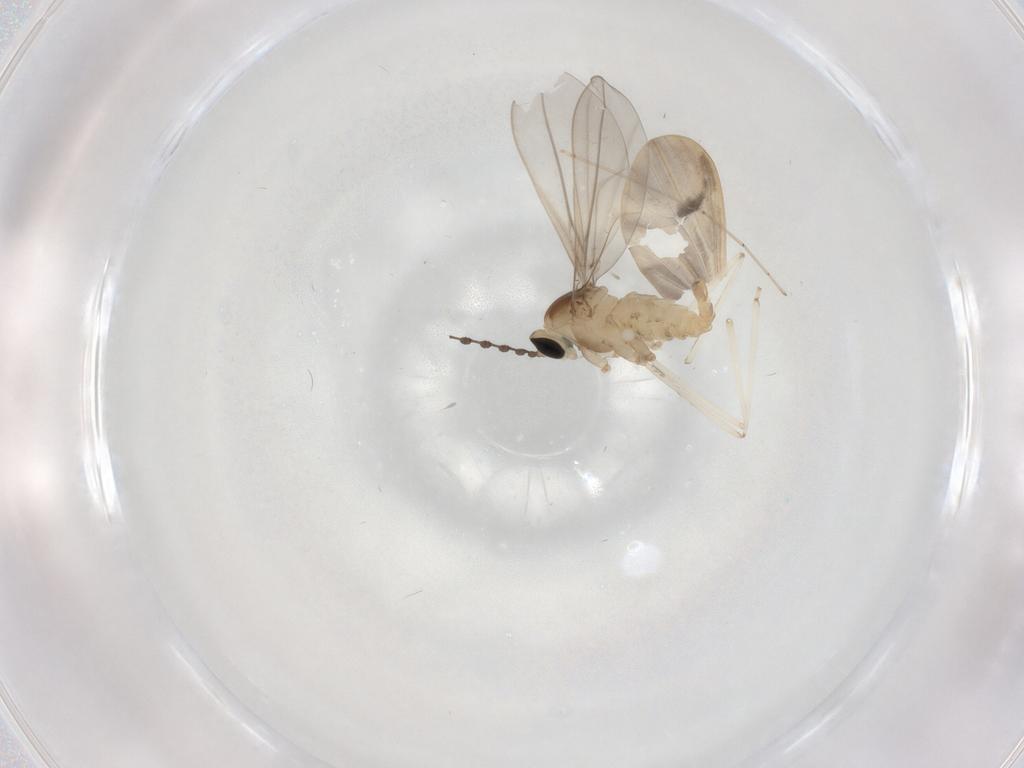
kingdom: Animalia
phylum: Arthropoda
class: Insecta
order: Diptera
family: Cecidomyiidae
